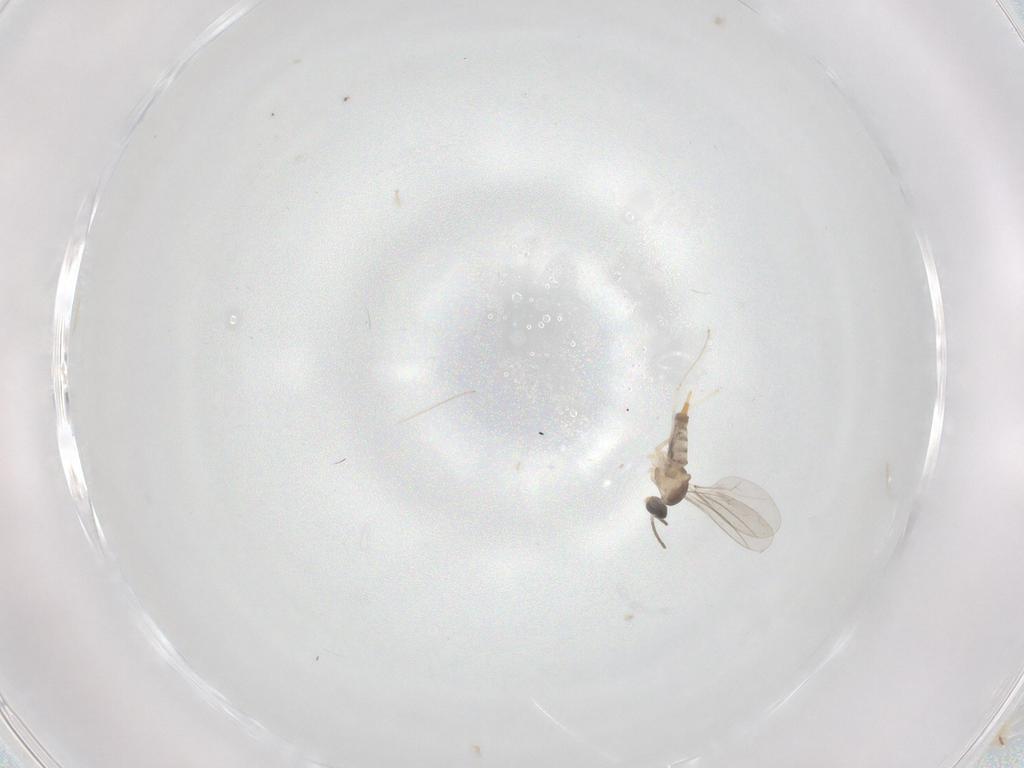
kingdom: Animalia
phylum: Arthropoda
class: Insecta
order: Diptera
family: Cecidomyiidae
